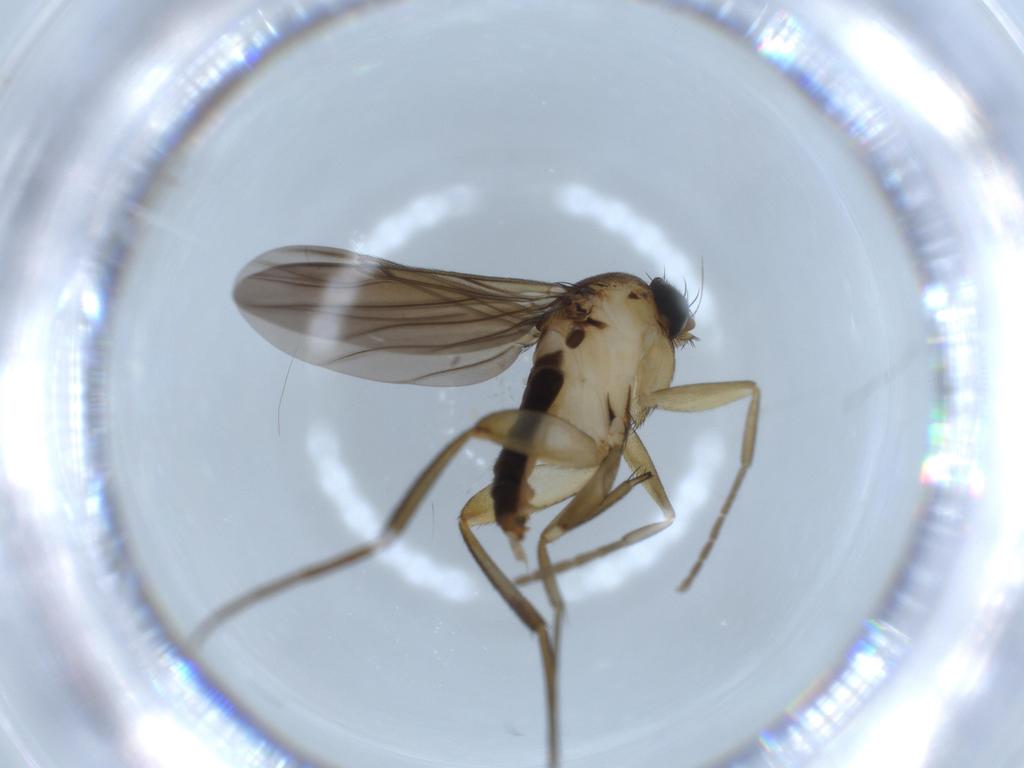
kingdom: Animalia
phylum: Arthropoda
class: Insecta
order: Diptera
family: Phoridae
